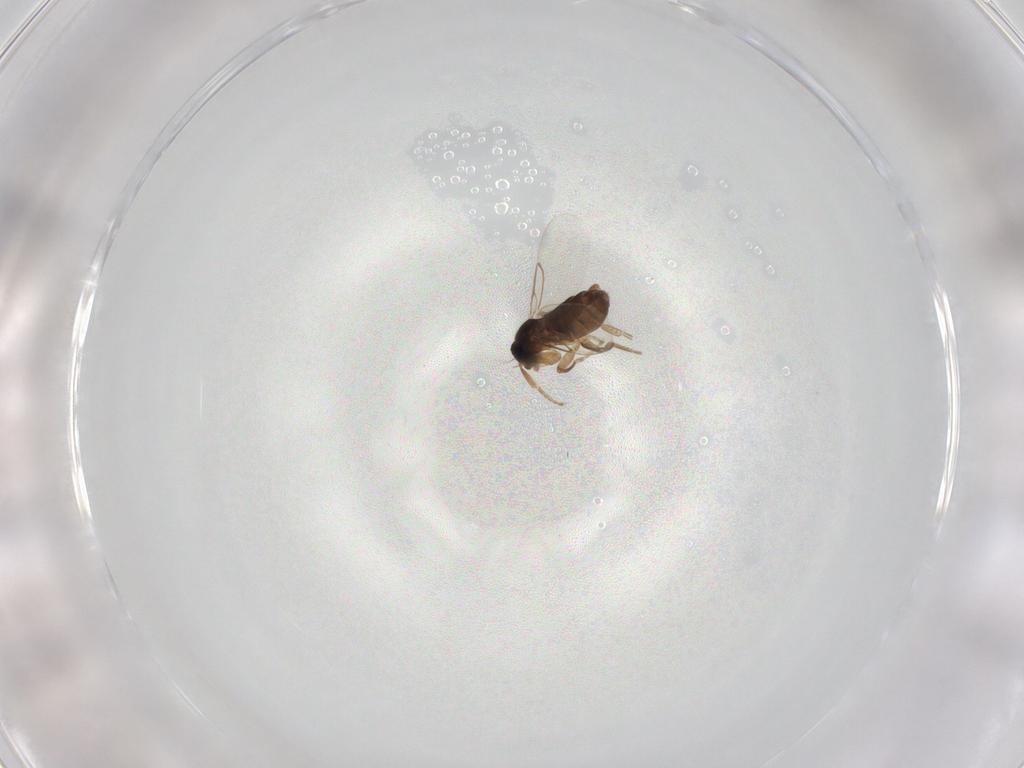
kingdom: Animalia
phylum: Arthropoda
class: Insecta
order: Diptera
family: Phoridae
